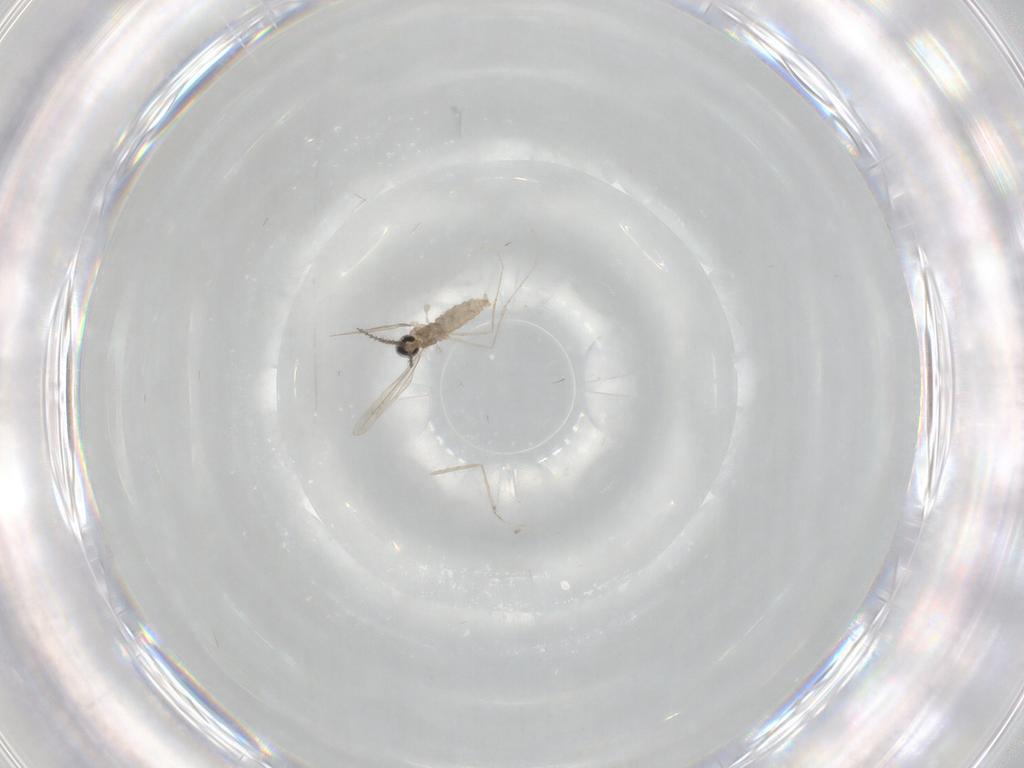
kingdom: Animalia
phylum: Arthropoda
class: Insecta
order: Diptera
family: Cecidomyiidae
